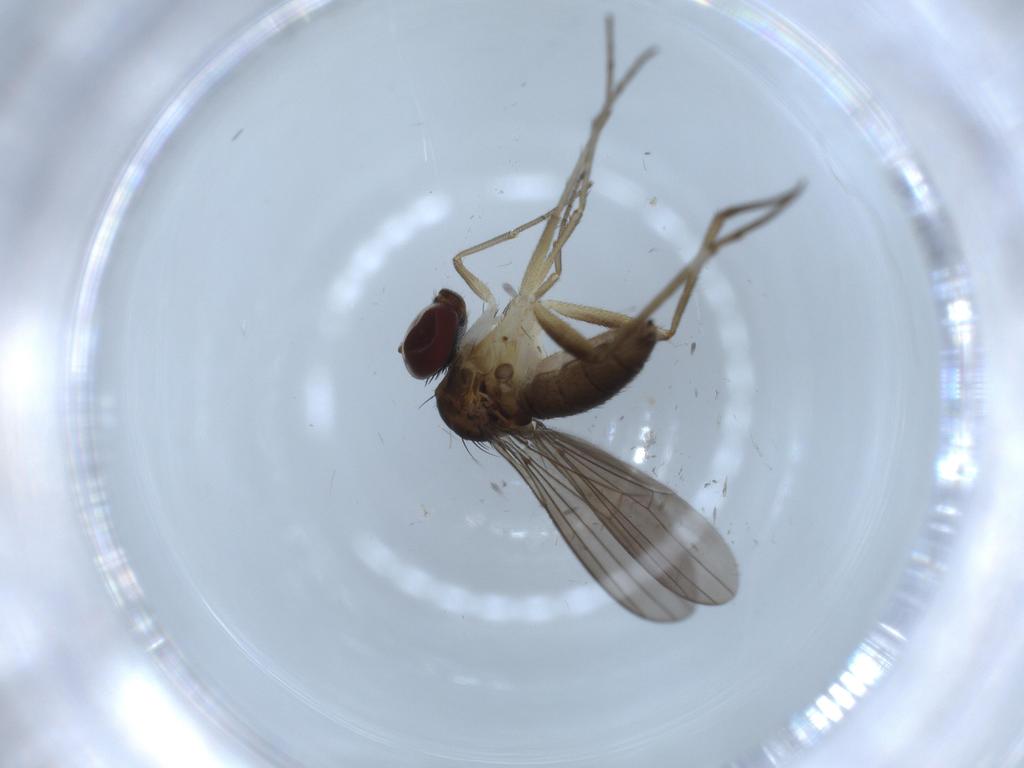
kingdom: Animalia
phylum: Arthropoda
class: Insecta
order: Diptera
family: Dolichopodidae
